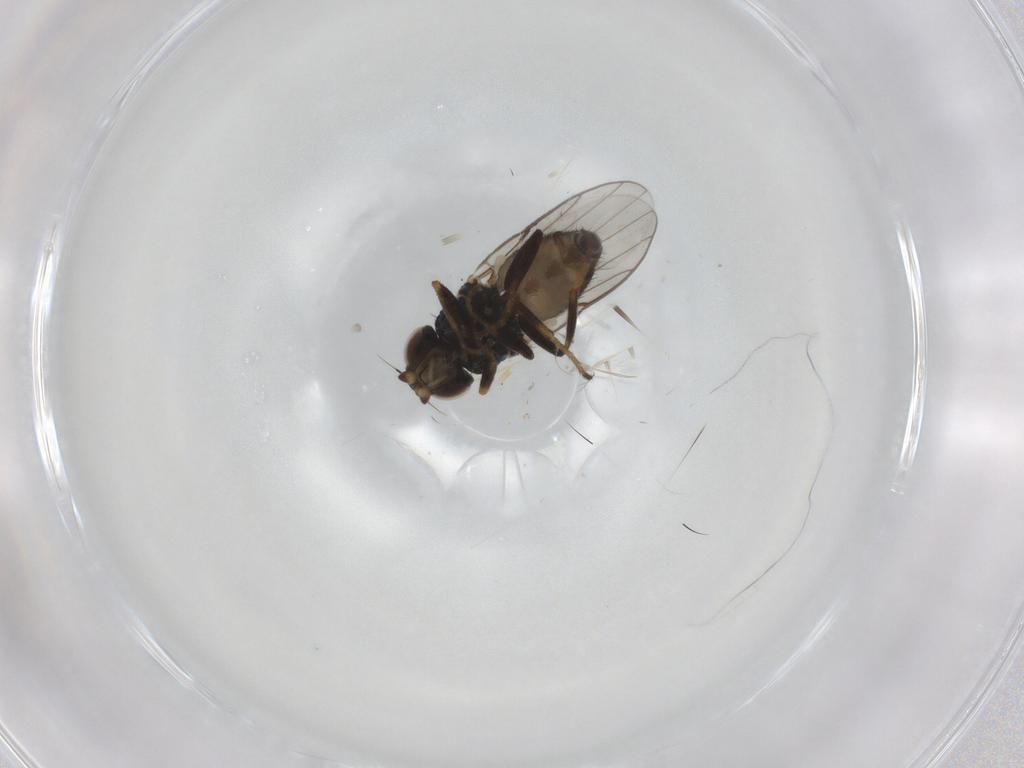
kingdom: Animalia
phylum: Arthropoda
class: Insecta
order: Diptera
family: Chloropidae
